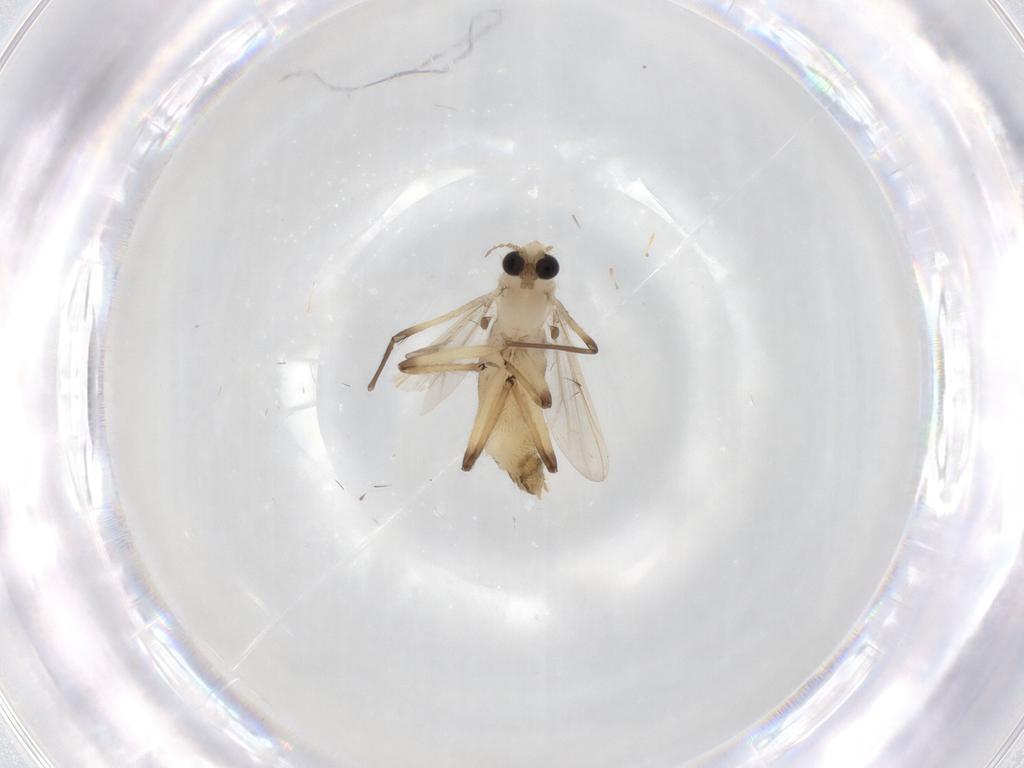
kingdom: Animalia
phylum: Arthropoda
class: Insecta
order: Diptera
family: Chironomidae
